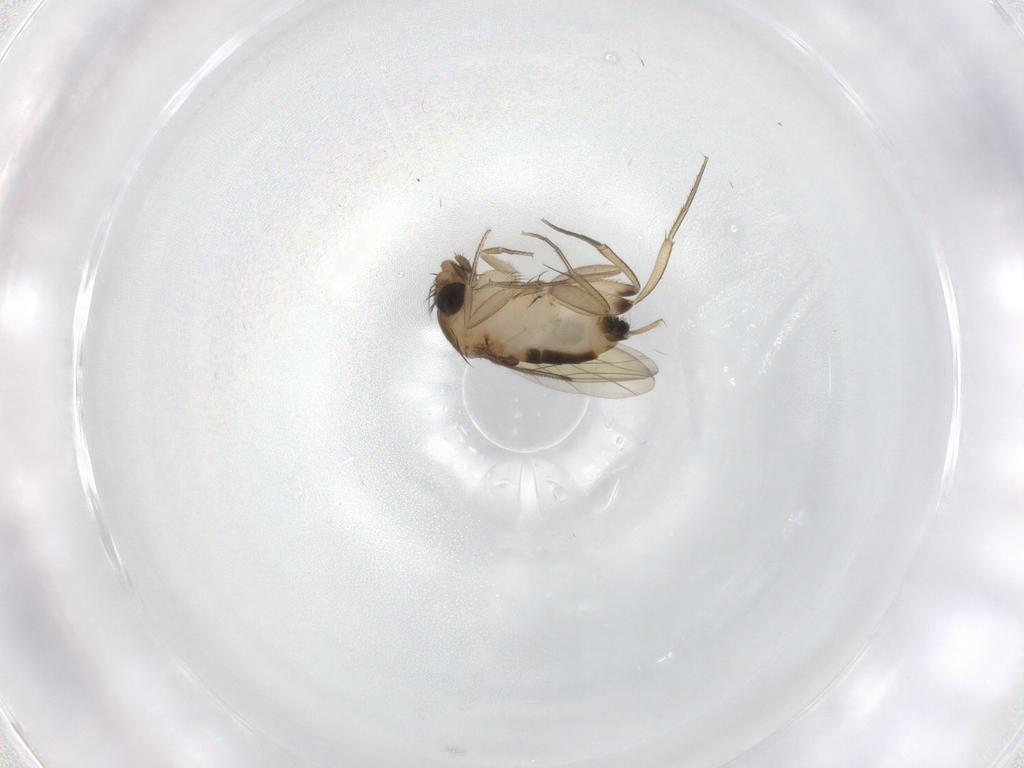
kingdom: Animalia
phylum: Arthropoda
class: Insecta
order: Diptera
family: Phoridae
